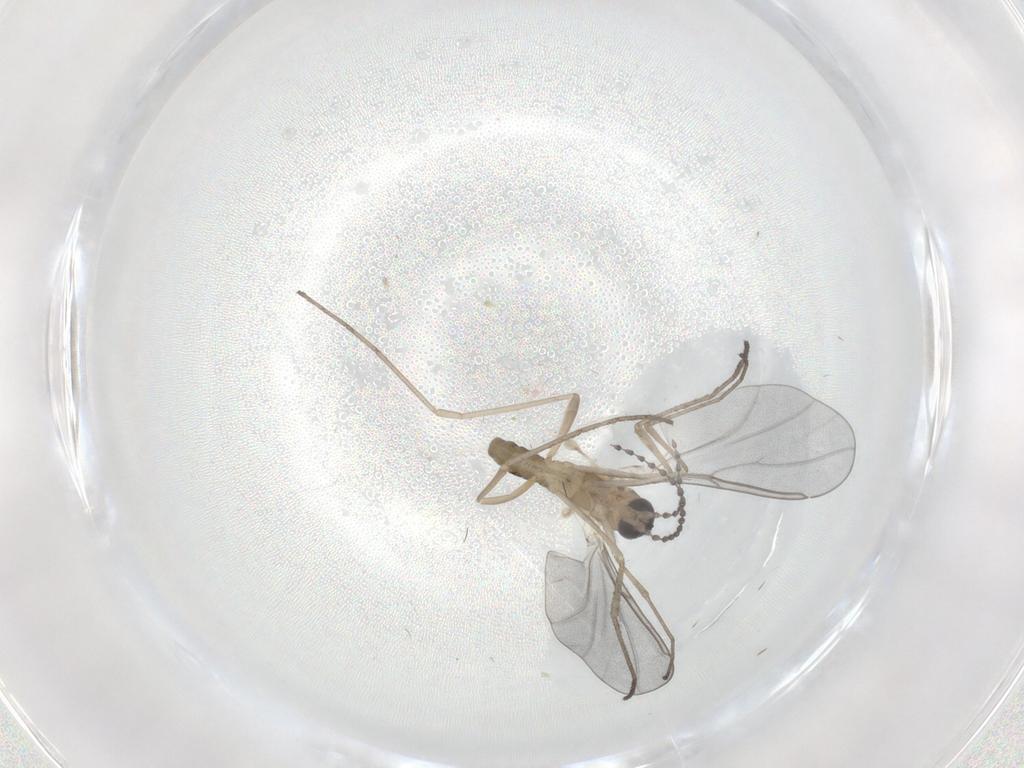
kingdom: Animalia
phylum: Arthropoda
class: Insecta
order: Diptera
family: Cecidomyiidae
